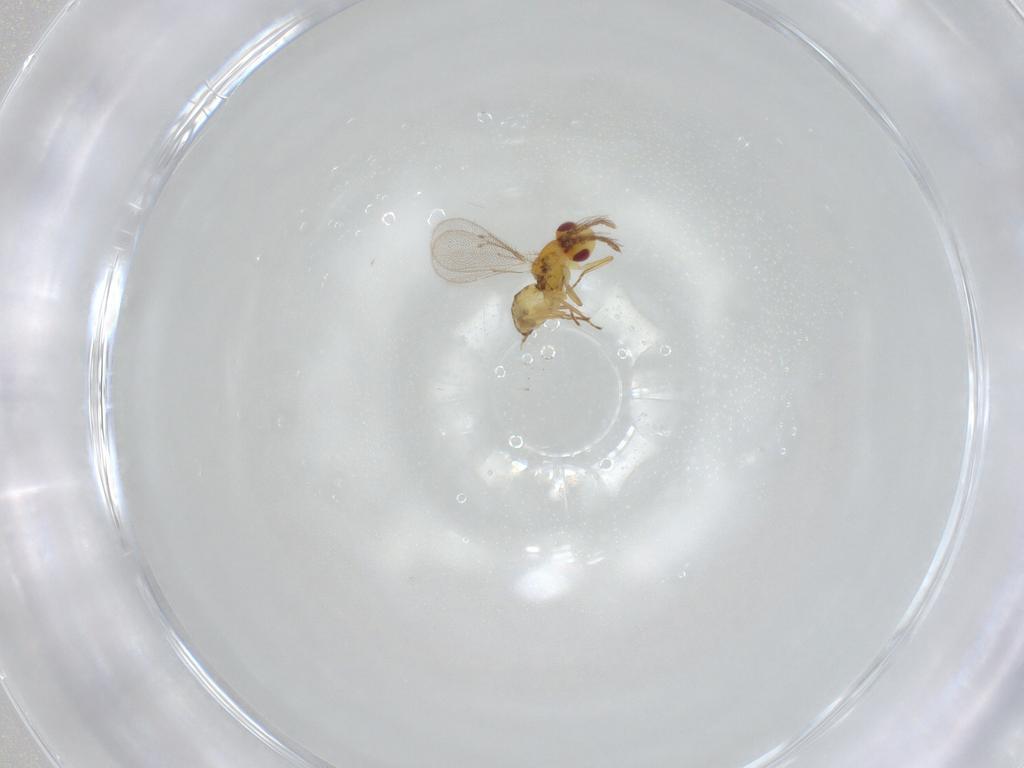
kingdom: Animalia
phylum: Arthropoda
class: Insecta
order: Hymenoptera
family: Eulophidae
